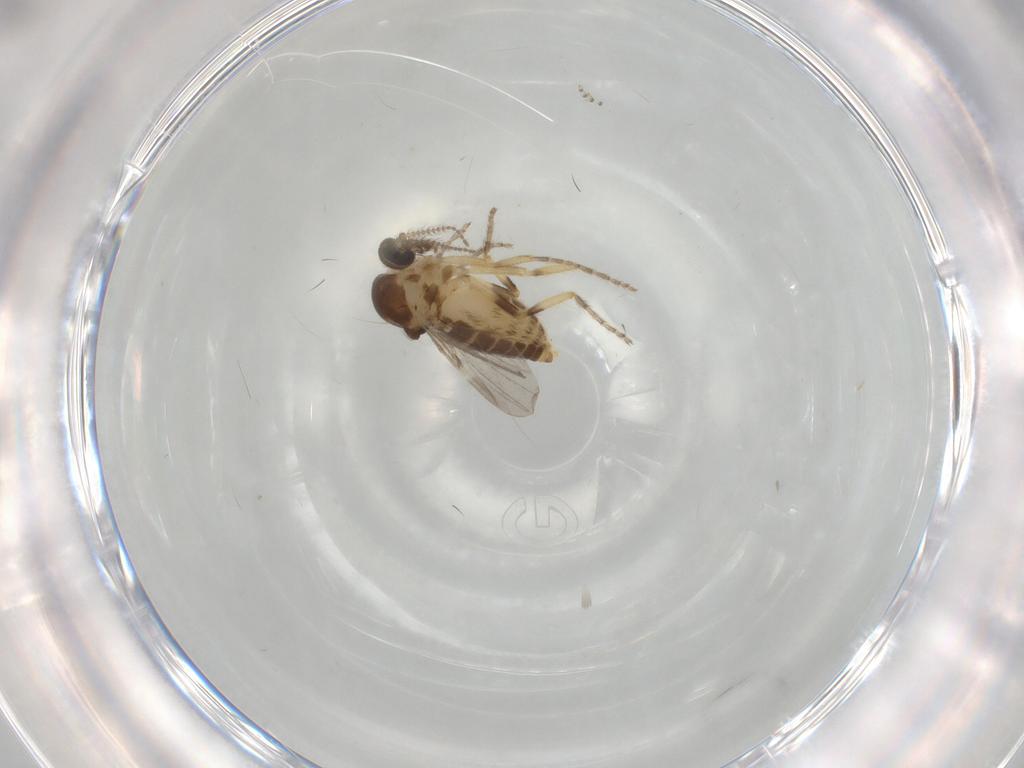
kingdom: Animalia
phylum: Arthropoda
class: Insecta
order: Diptera
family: Ceratopogonidae
